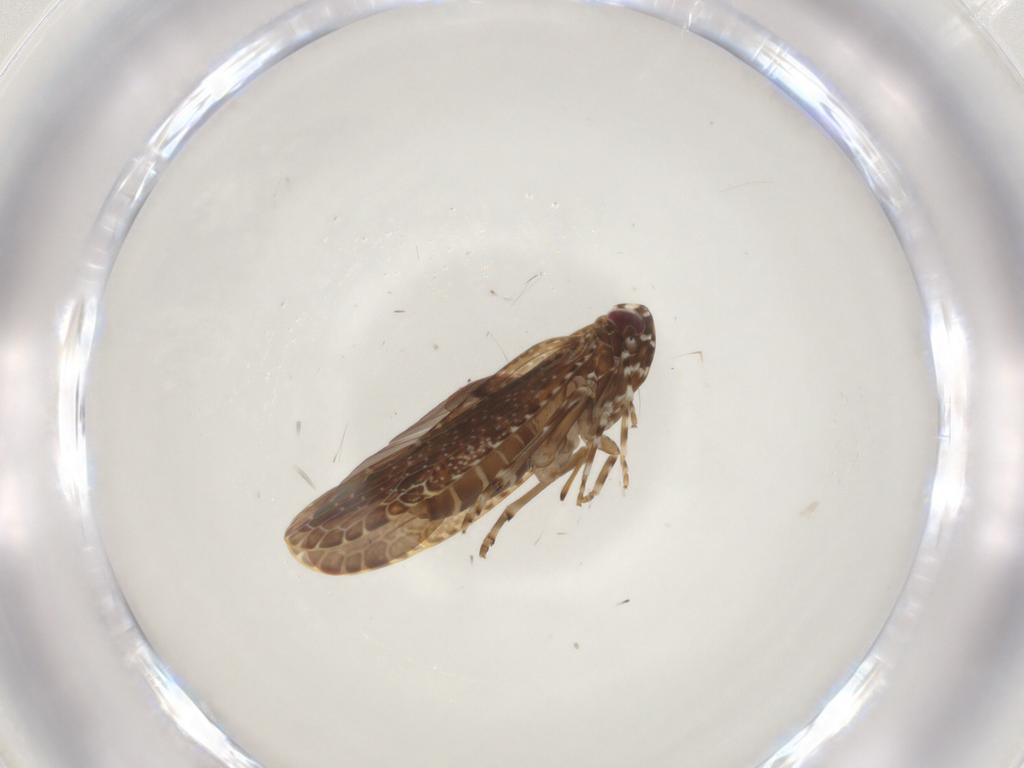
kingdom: Animalia
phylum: Arthropoda
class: Insecta
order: Hemiptera
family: Achilidae
